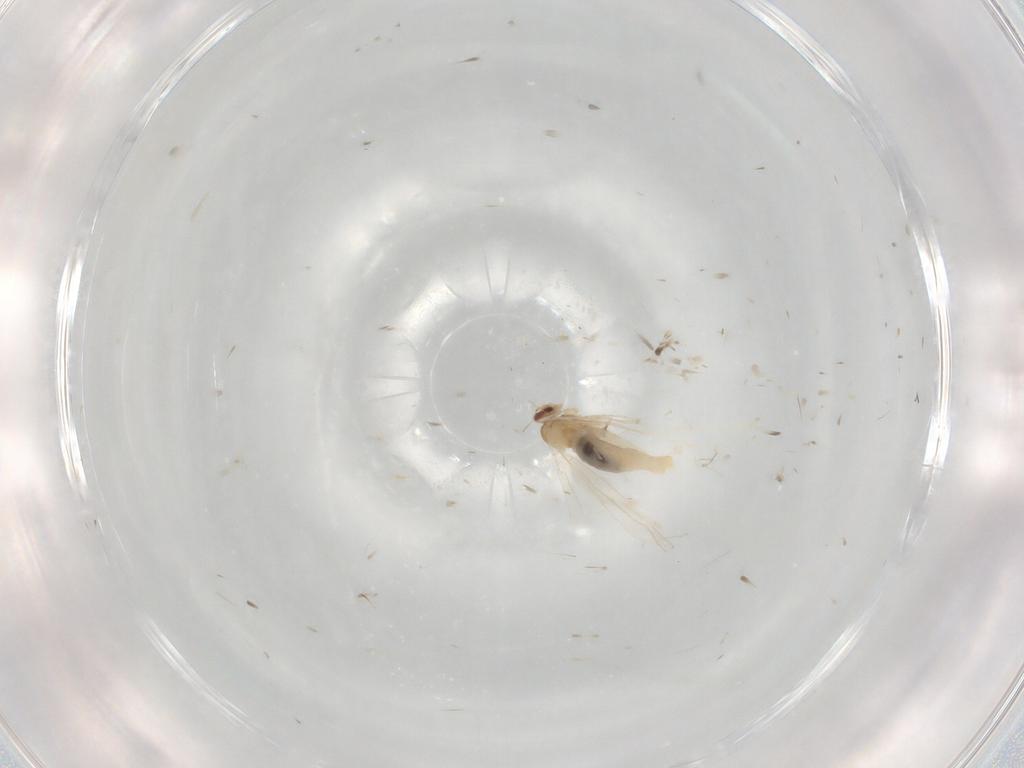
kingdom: Animalia
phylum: Arthropoda
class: Insecta
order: Diptera
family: Cecidomyiidae
